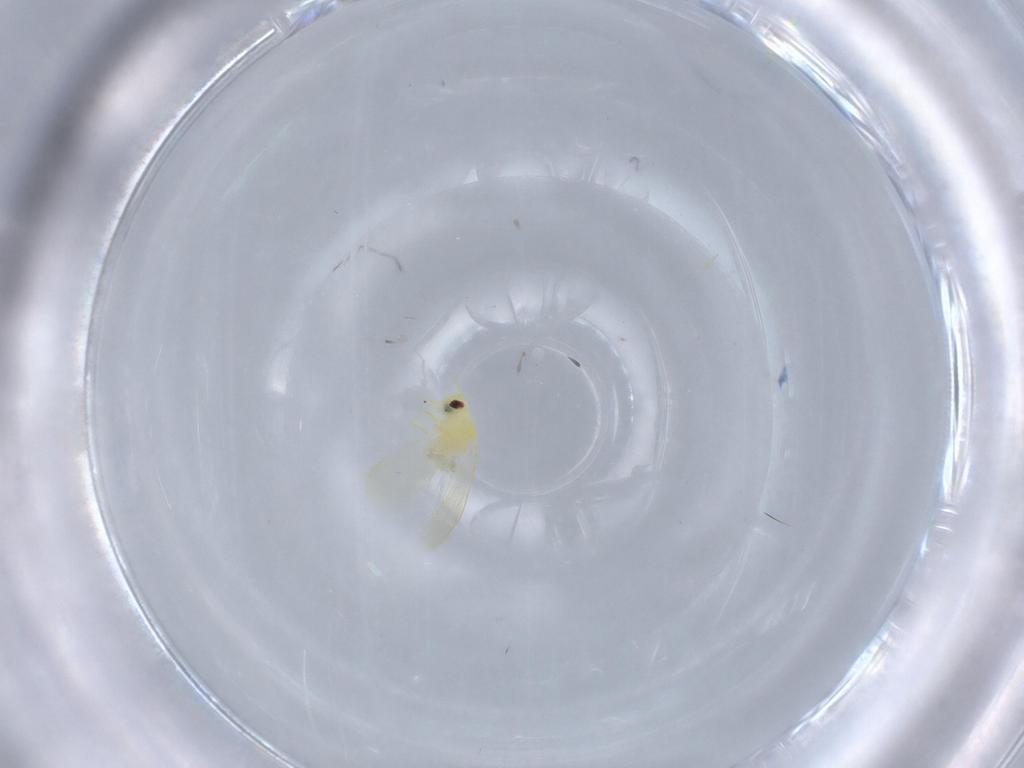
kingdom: Animalia
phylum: Arthropoda
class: Insecta
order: Hemiptera
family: Aleyrodidae
